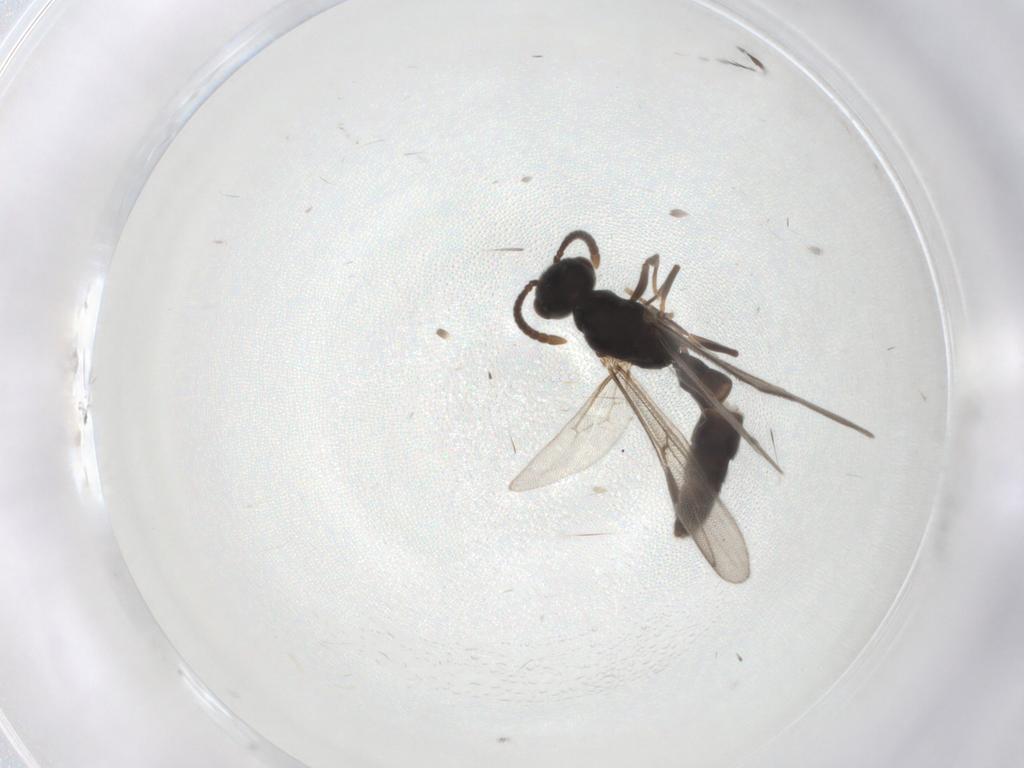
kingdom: Animalia
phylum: Arthropoda
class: Insecta
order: Hymenoptera
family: Formicidae
